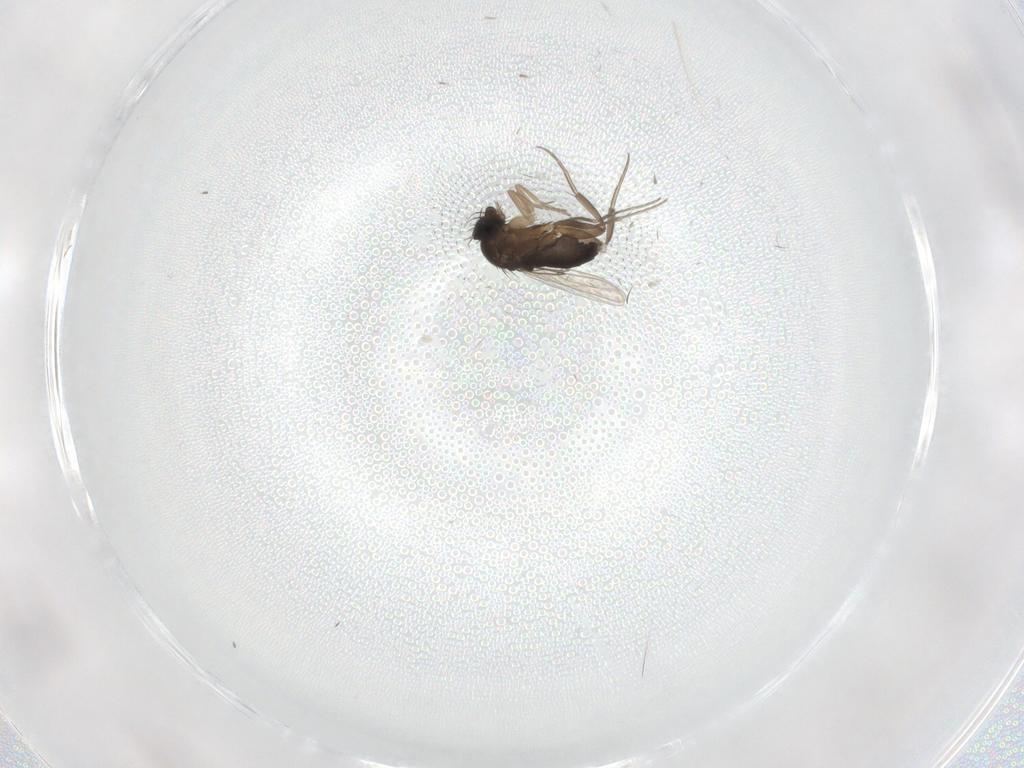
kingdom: Animalia
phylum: Arthropoda
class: Insecta
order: Diptera
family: Phoridae
